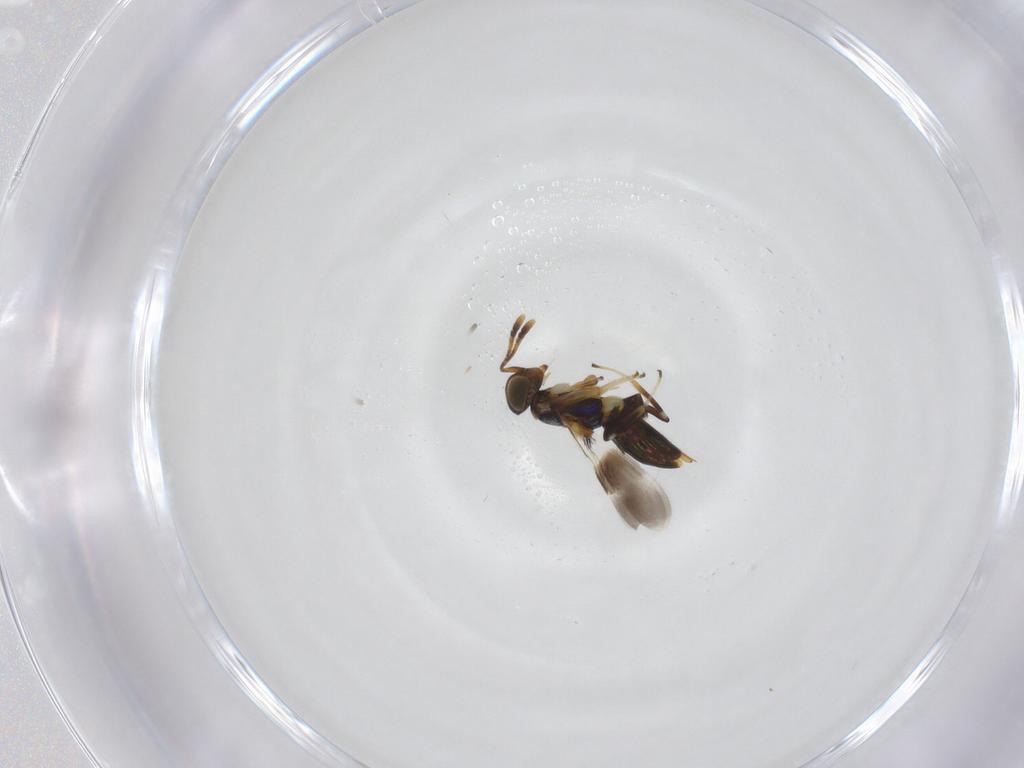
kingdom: Animalia
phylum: Arthropoda
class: Insecta
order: Hymenoptera
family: Encyrtidae
